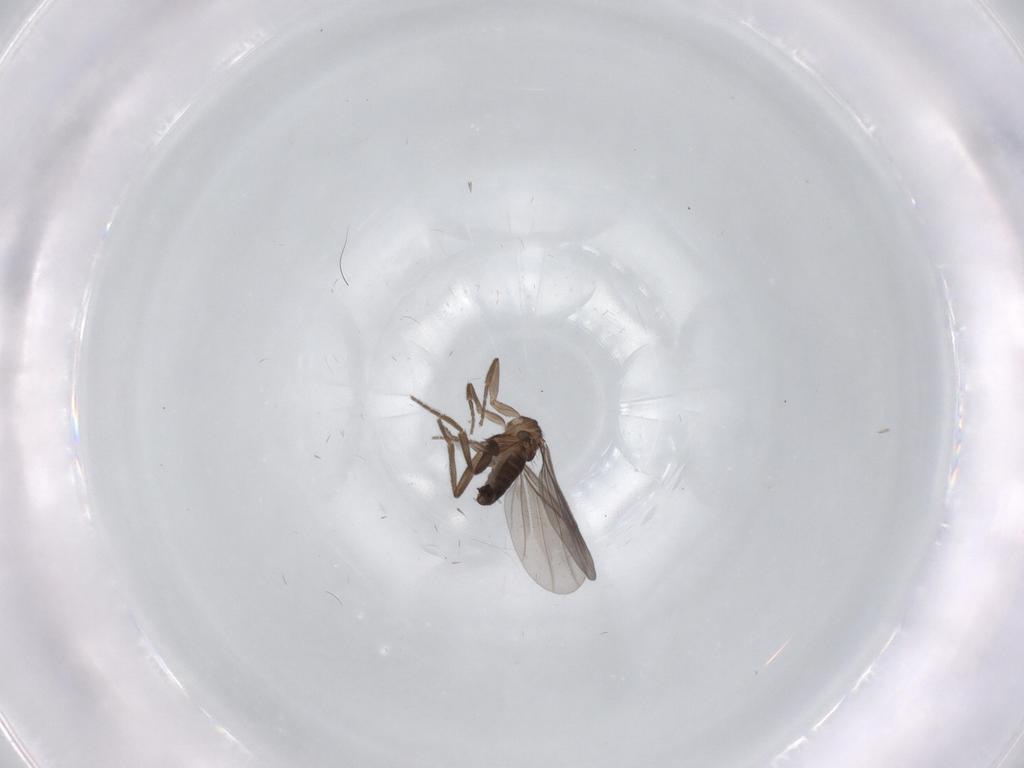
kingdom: Animalia
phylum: Arthropoda
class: Insecta
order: Diptera
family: Phoridae
